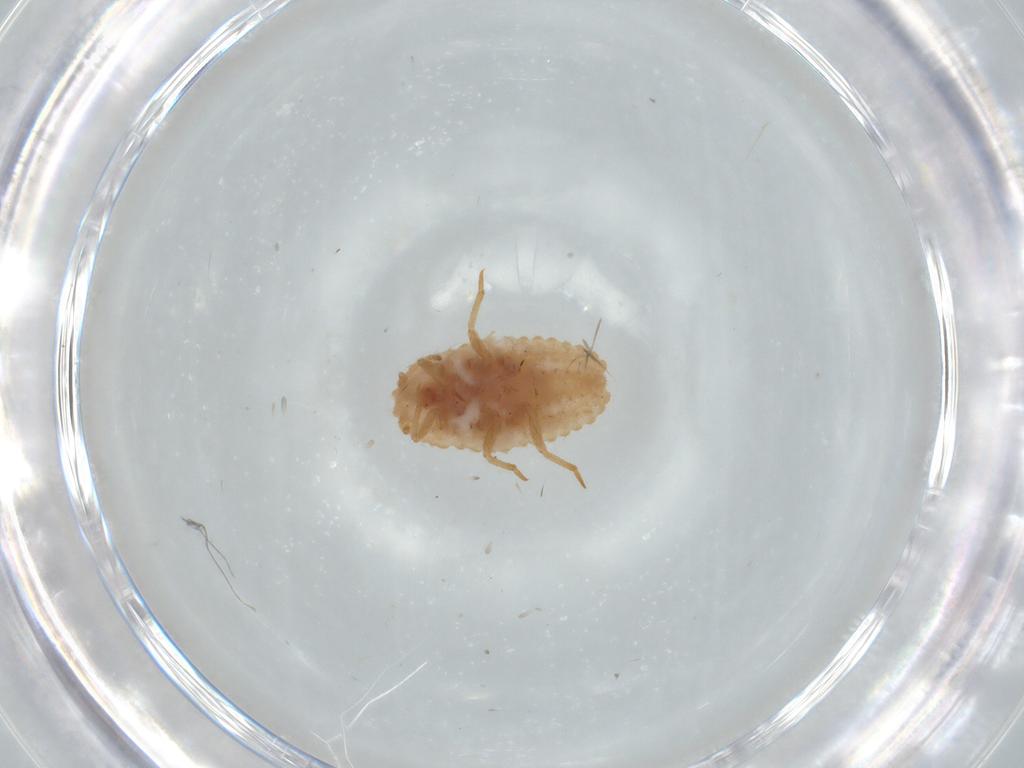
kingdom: Animalia
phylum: Arthropoda
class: Insecta
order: Hemiptera
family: Coccoidea_incertae_sedis
